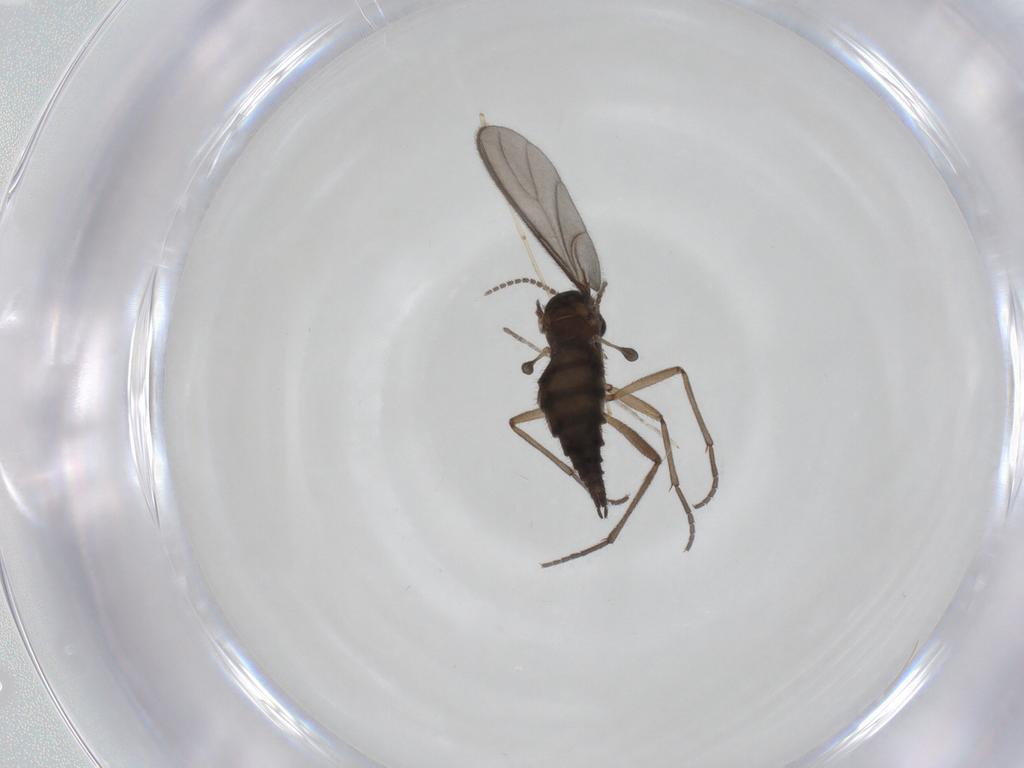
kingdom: Animalia
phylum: Arthropoda
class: Insecta
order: Diptera
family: Sciaridae
